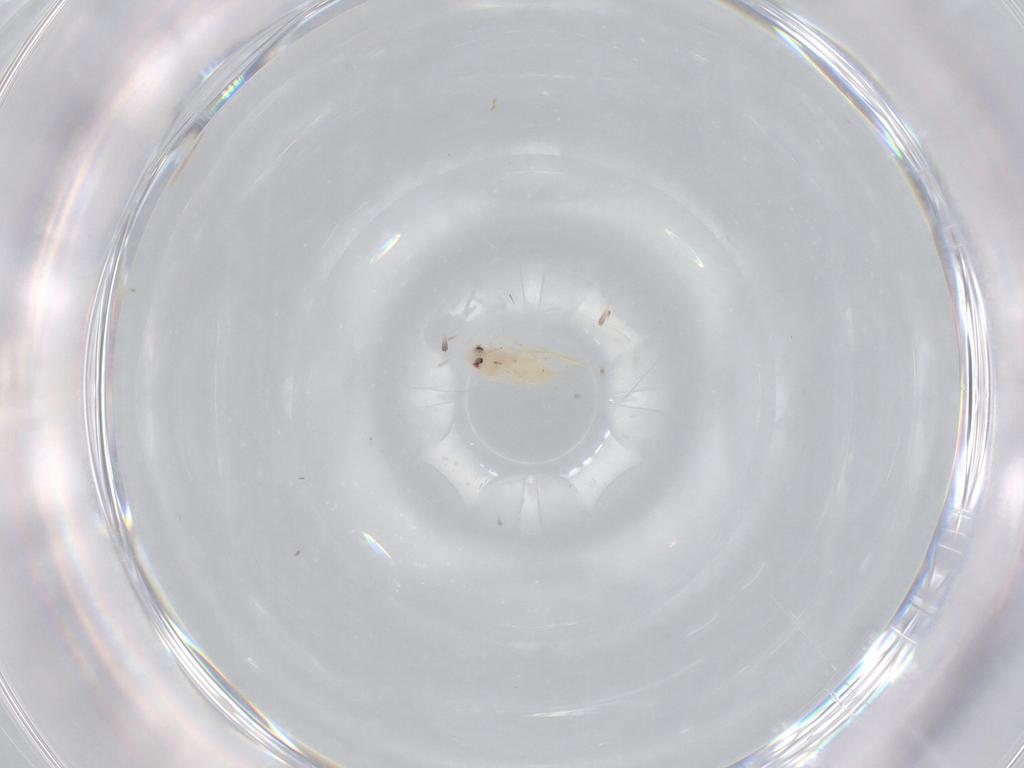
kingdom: Animalia
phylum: Arthropoda
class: Insecta
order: Hemiptera
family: Aleyrodidae
